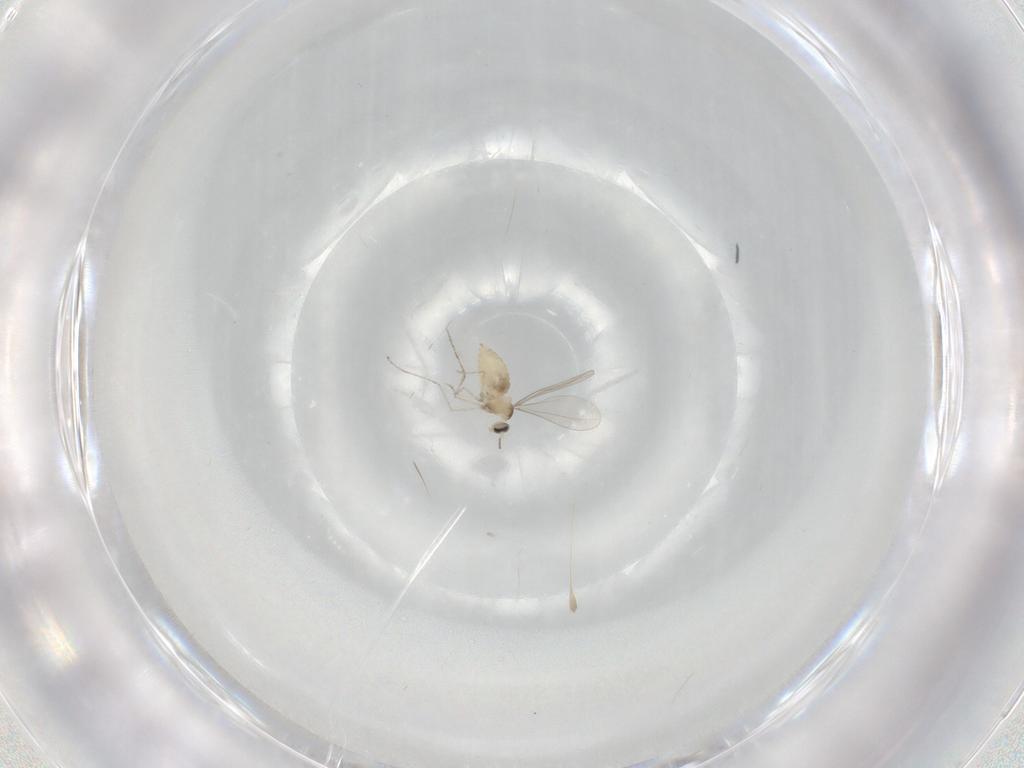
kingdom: Animalia
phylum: Arthropoda
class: Insecta
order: Diptera
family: Cecidomyiidae
